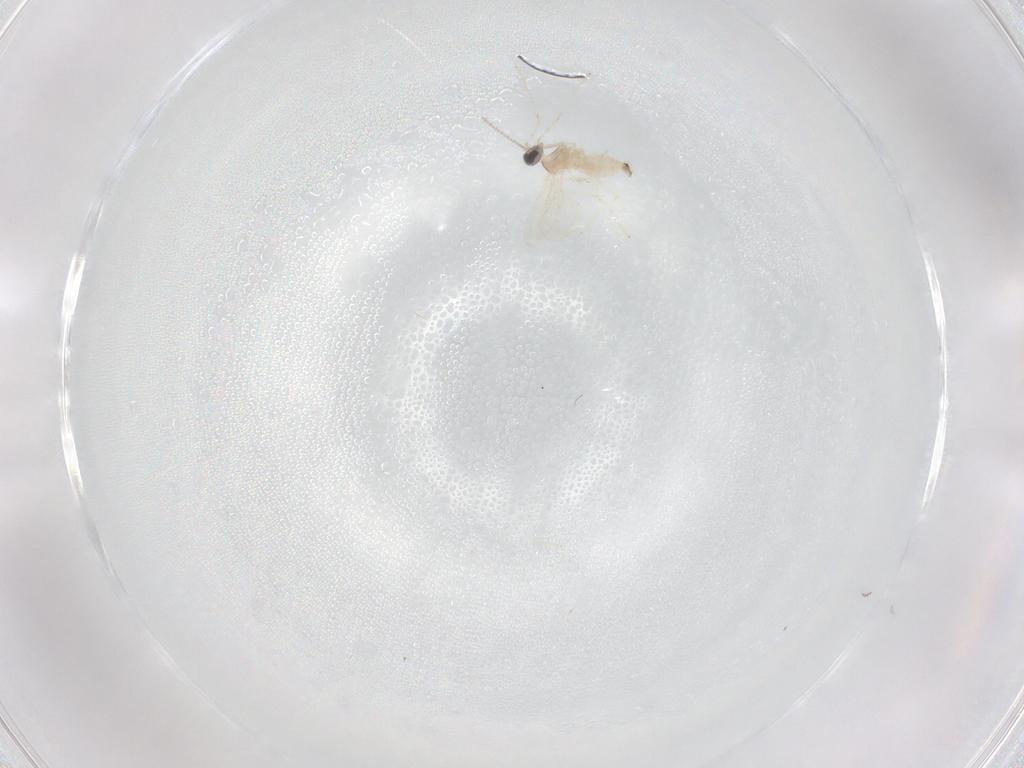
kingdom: Animalia
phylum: Arthropoda
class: Insecta
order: Diptera
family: Cecidomyiidae
